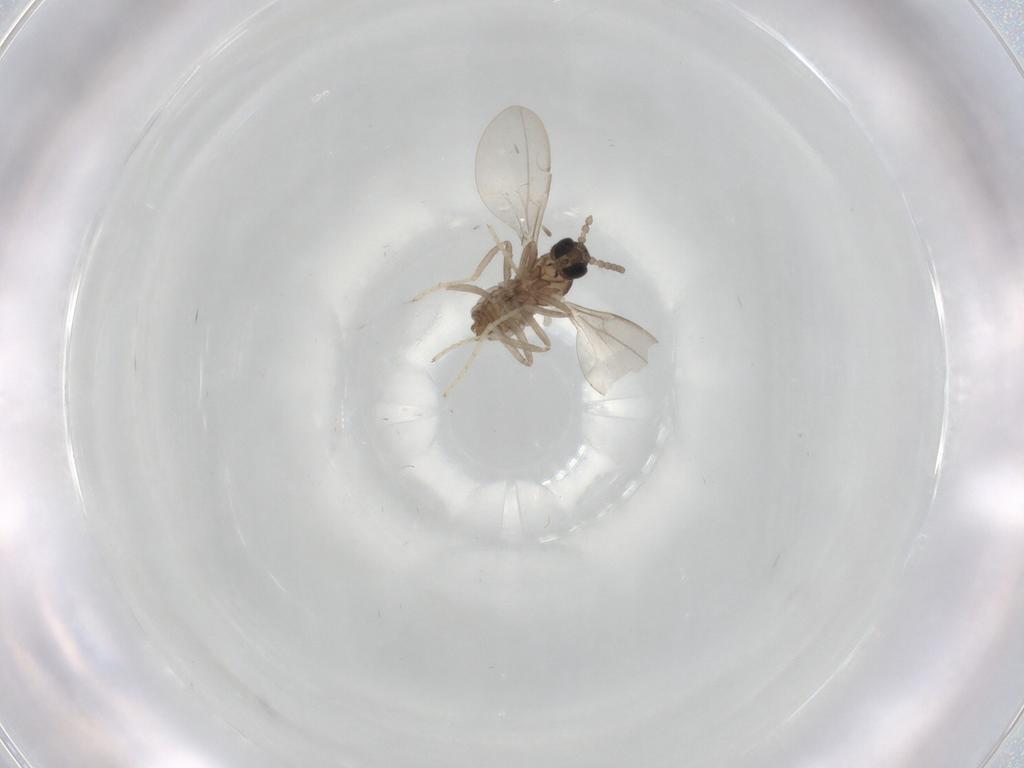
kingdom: Animalia
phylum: Arthropoda
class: Insecta
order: Diptera
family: Cecidomyiidae
